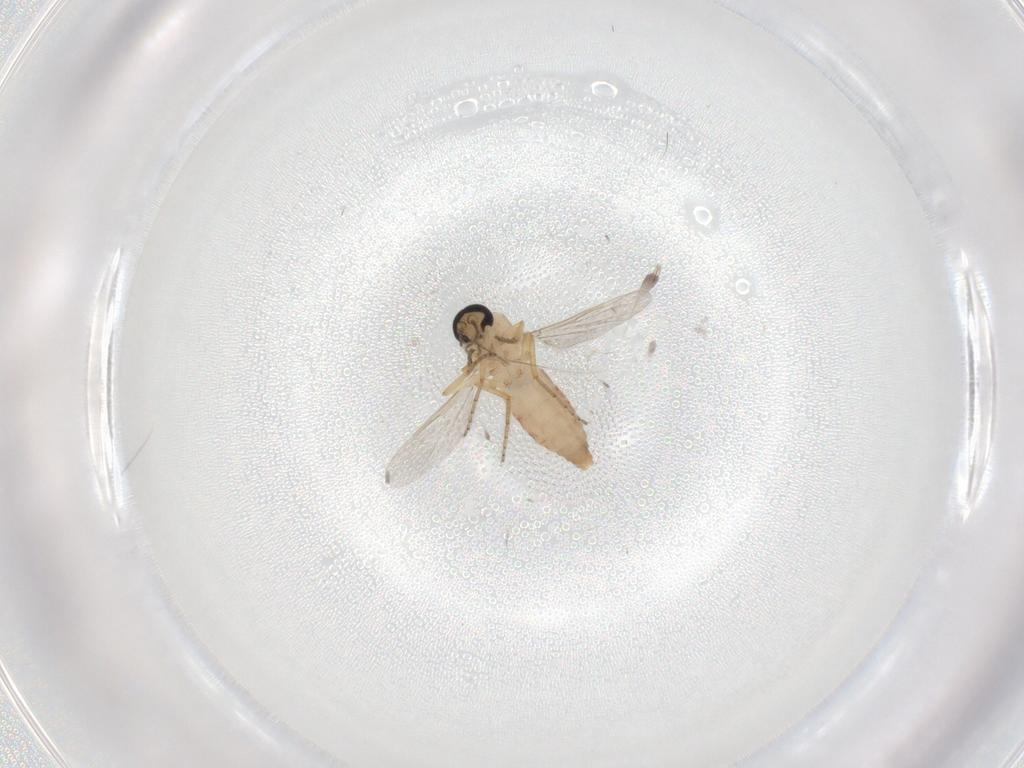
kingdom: Animalia
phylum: Arthropoda
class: Insecta
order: Diptera
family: Ceratopogonidae
